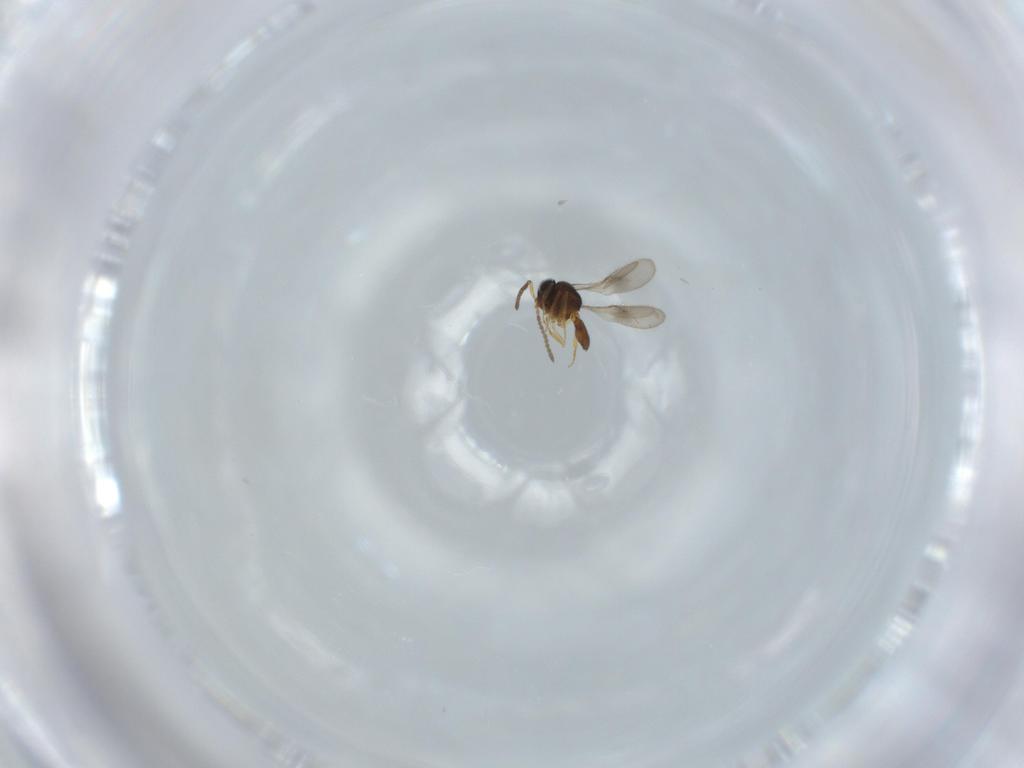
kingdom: Animalia
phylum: Arthropoda
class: Insecta
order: Hymenoptera
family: Scelionidae
